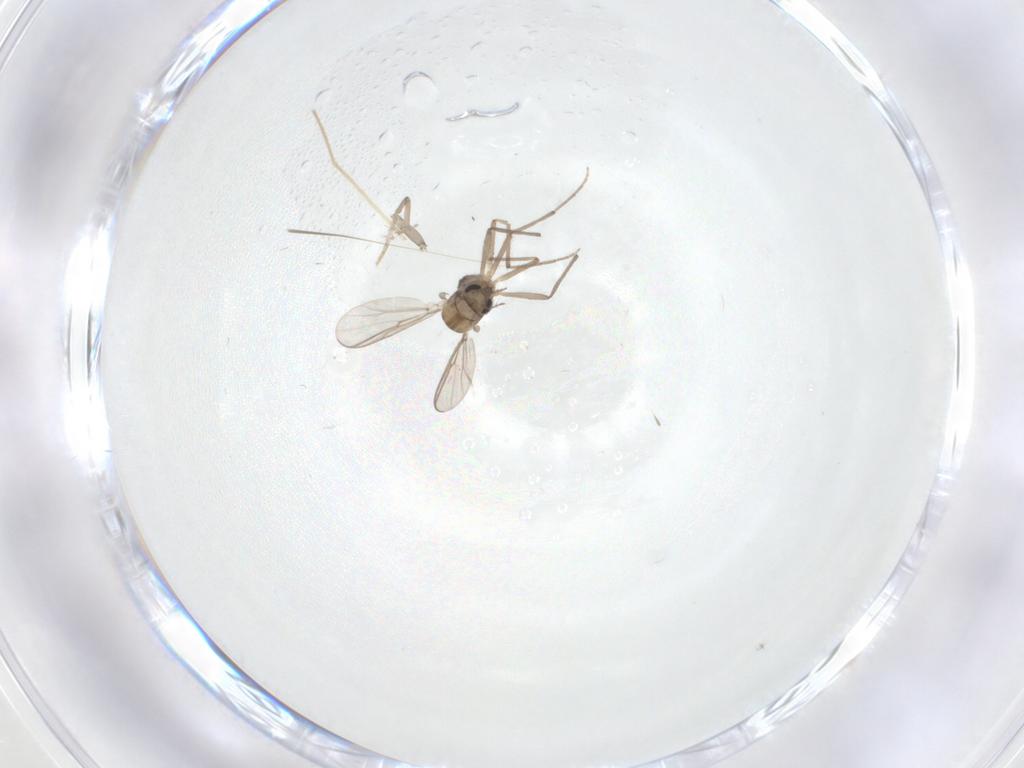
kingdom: Animalia
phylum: Arthropoda
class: Insecta
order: Diptera
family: Chironomidae
